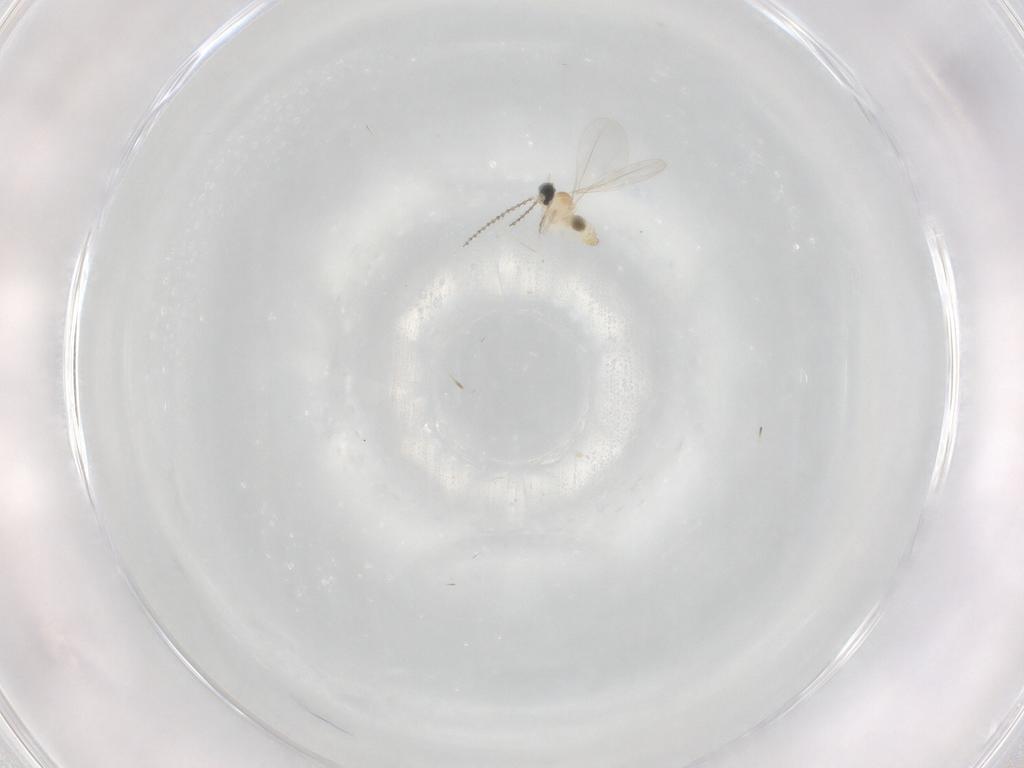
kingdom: Animalia
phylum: Arthropoda
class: Insecta
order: Diptera
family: Cecidomyiidae
